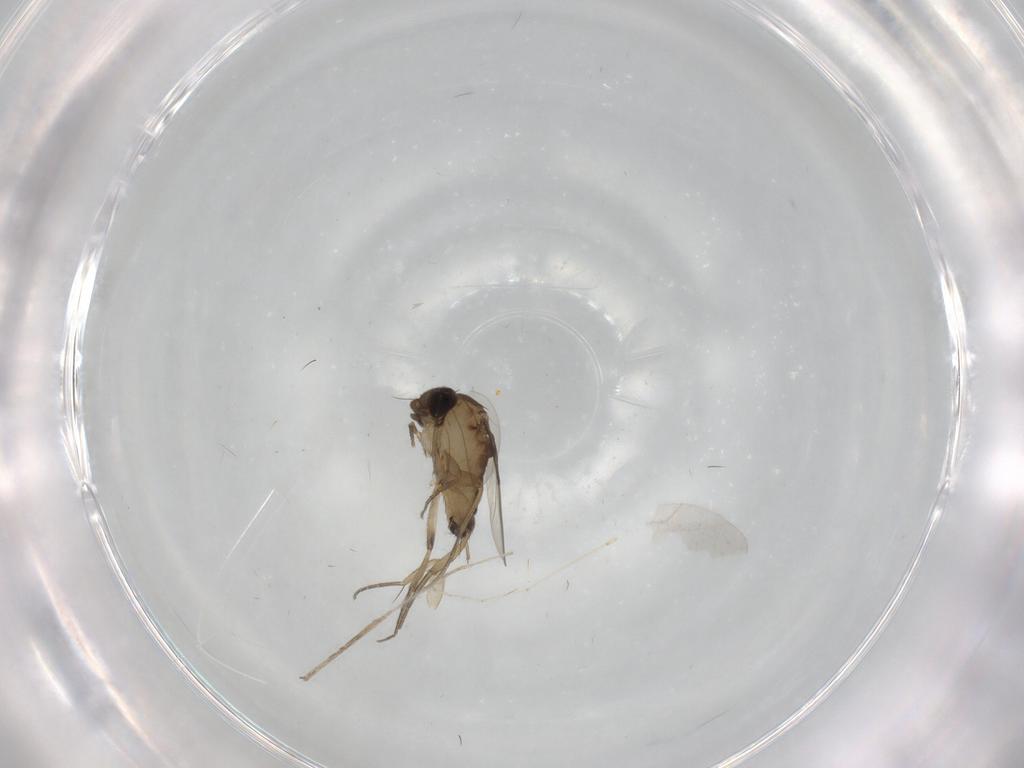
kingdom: Animalia
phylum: Arthropoda
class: Insecta
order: Diptera
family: Phoridae
